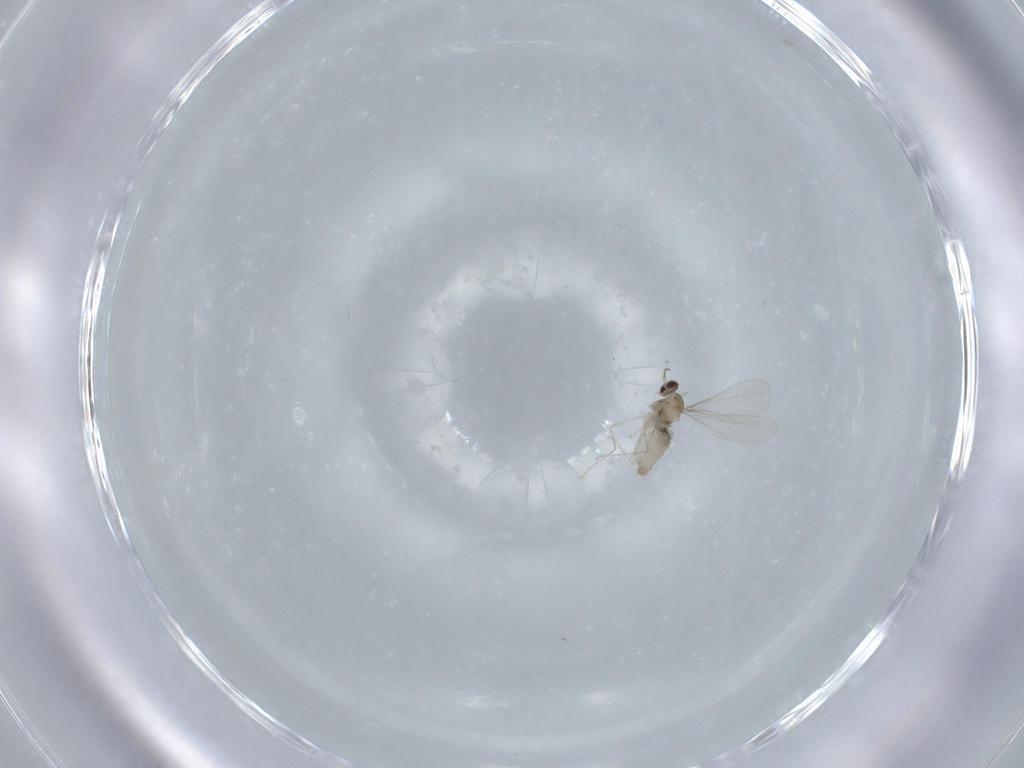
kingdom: Animalia
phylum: Arthropoda
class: Insecta
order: Diptera
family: Cecidomyiidae
